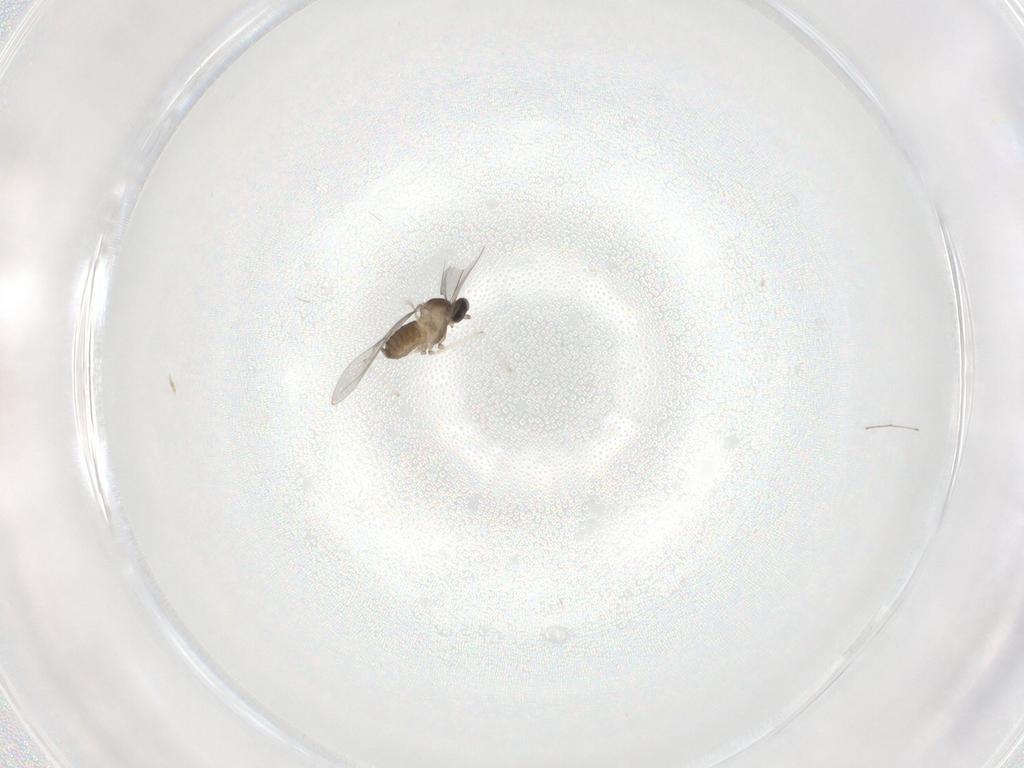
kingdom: Animalia
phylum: Arthropoda
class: Insecta
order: Diptera
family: Cecidomyiidae
